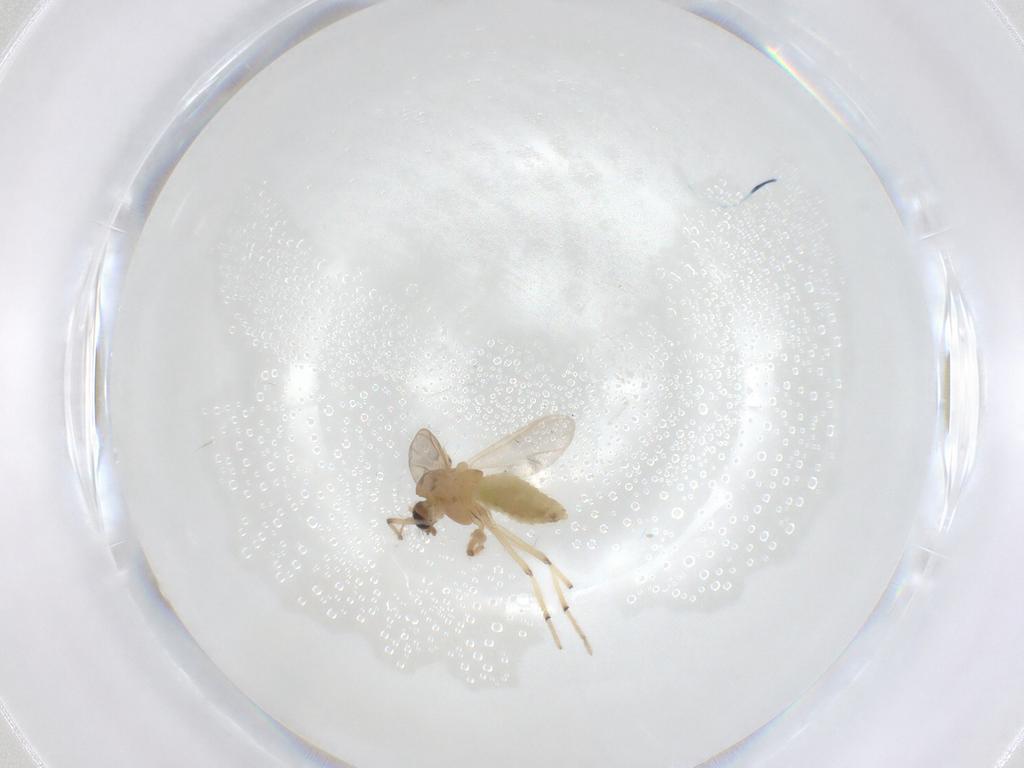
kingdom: Animalia
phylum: Arthropoda
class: Insecta
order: Diptera
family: Chironomidae
